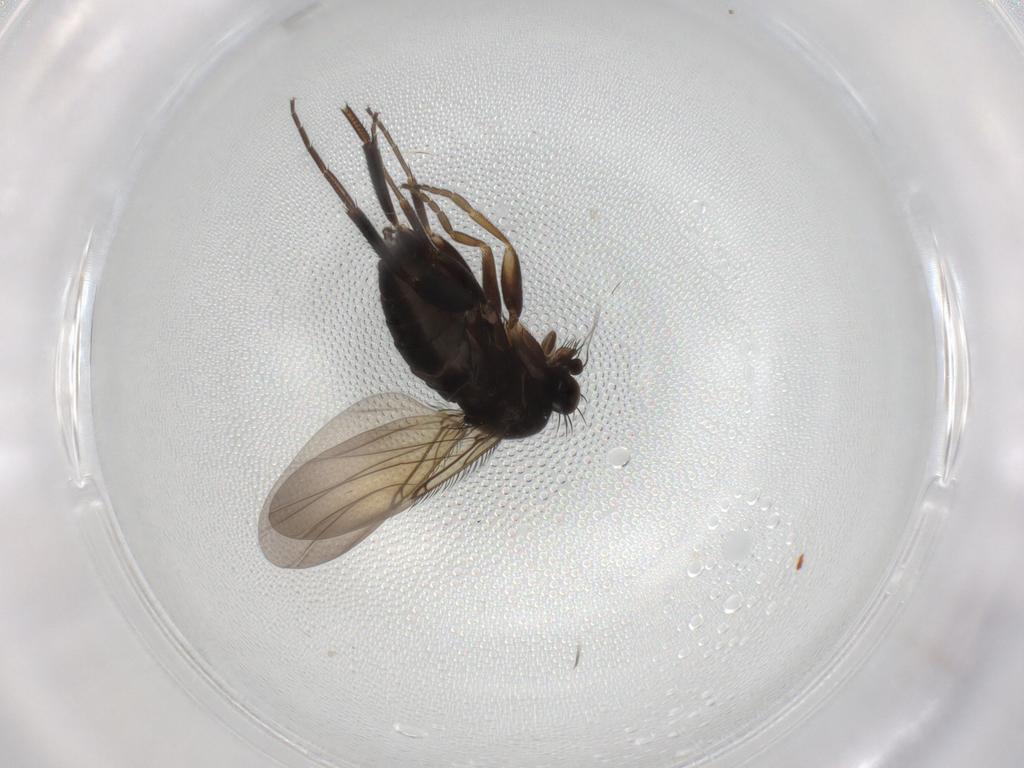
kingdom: Animalia
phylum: Arthropoda
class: Insecta
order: Diptera
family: Phoridae
